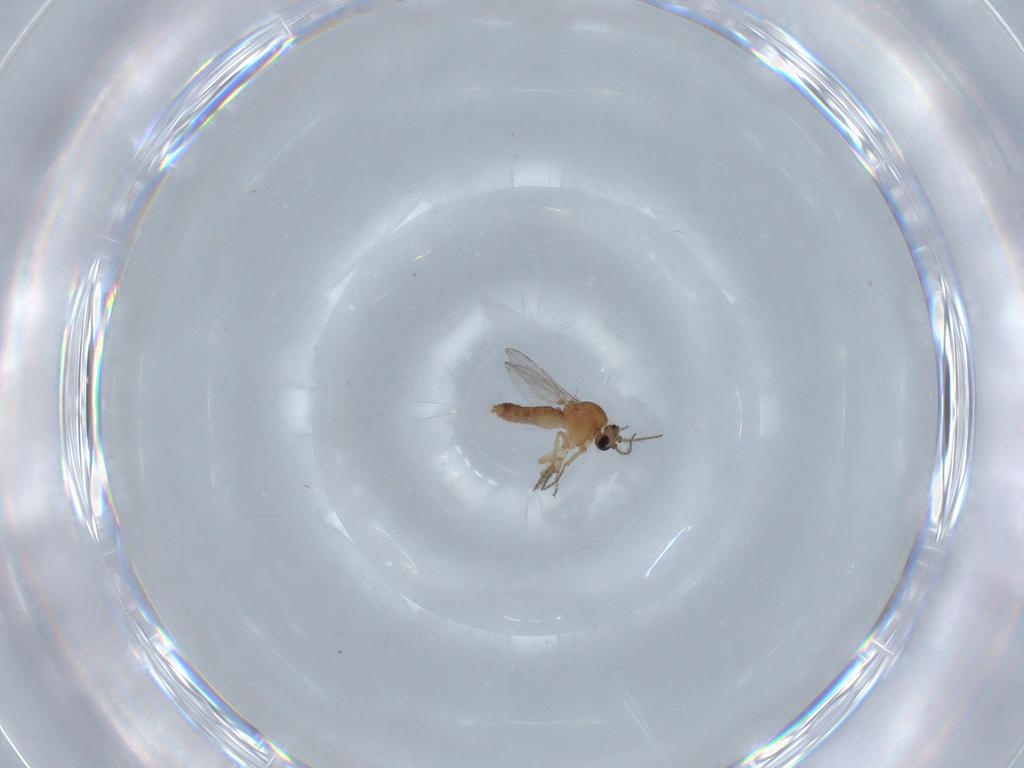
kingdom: Animalia
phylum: Arthropoda
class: Insecta
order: Diptera
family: Ceratopogonidae
